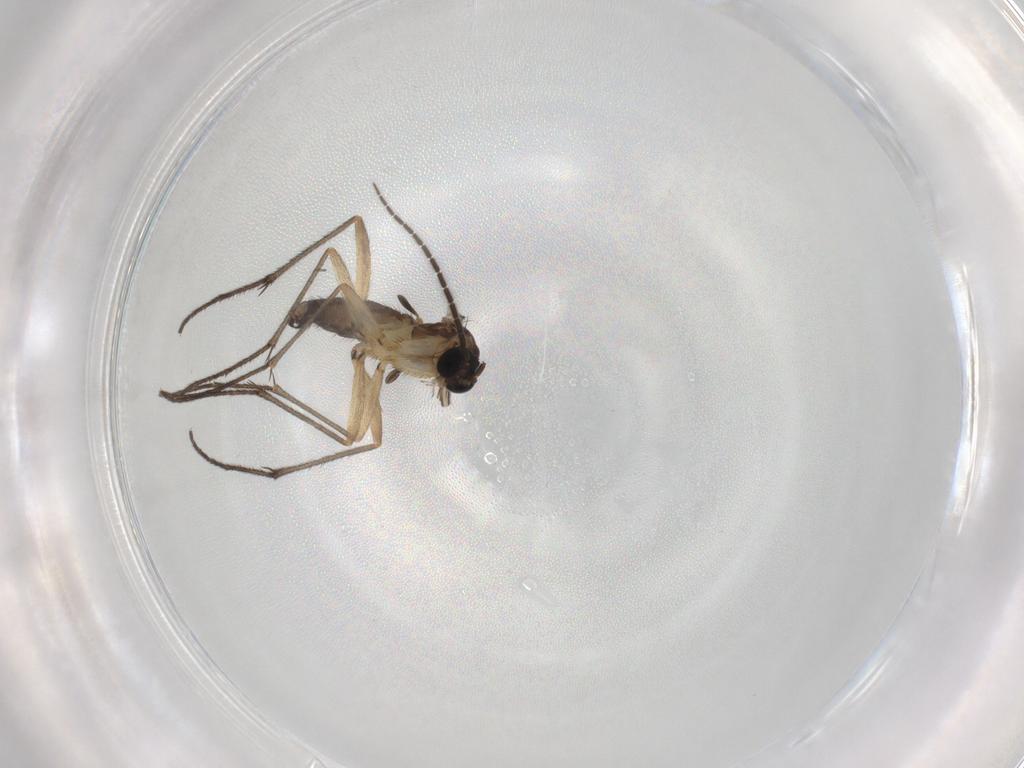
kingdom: Animalia
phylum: Arthropoda
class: Insecta
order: Diptera
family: Sciaridae
